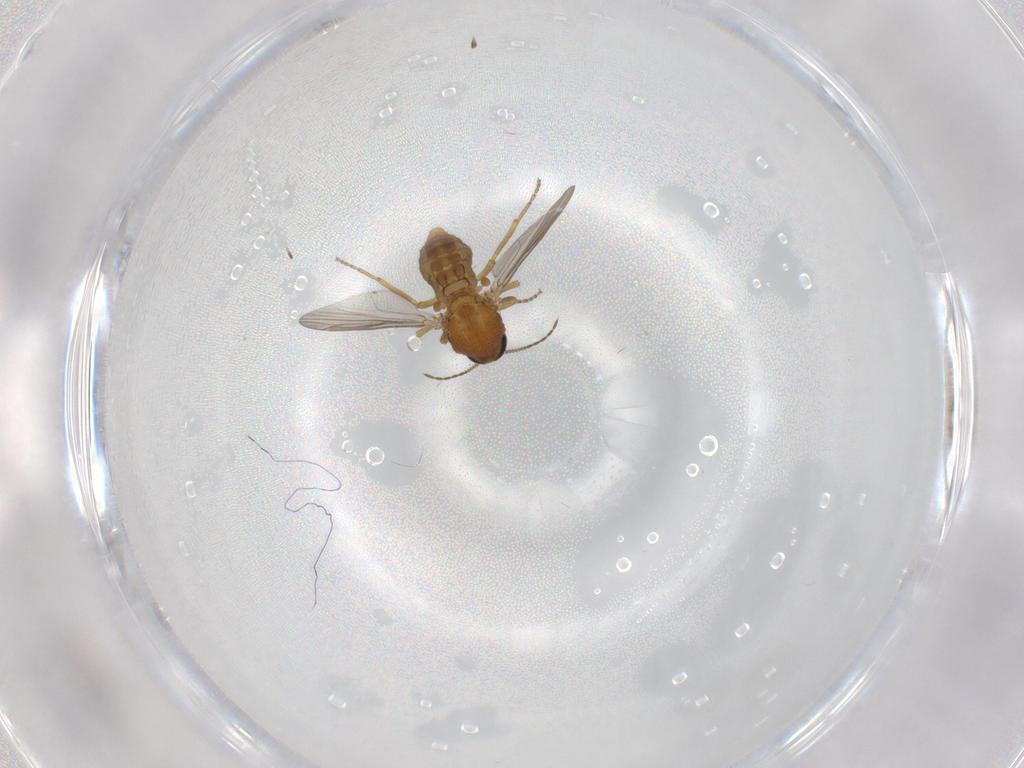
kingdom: Animalia
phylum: Arthropoda
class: Insecta
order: Diptera
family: Ceratopogonidae
